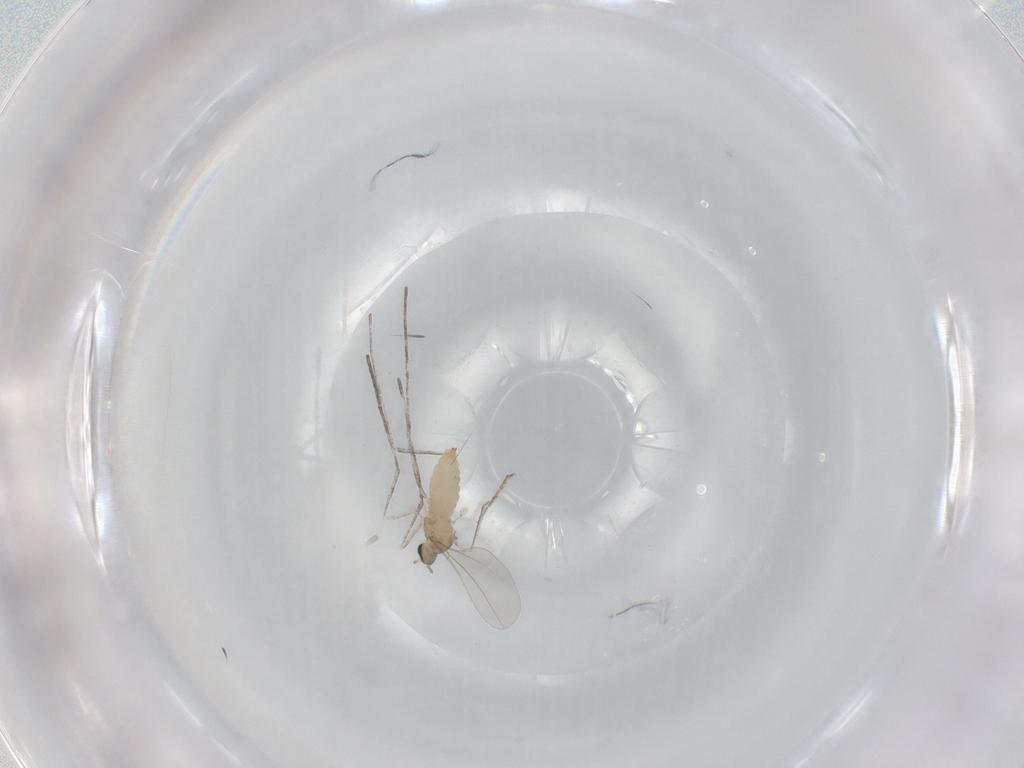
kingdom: Animalia
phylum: Arthropoda
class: Insecta
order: Diptera
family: Cecidomyiidae
